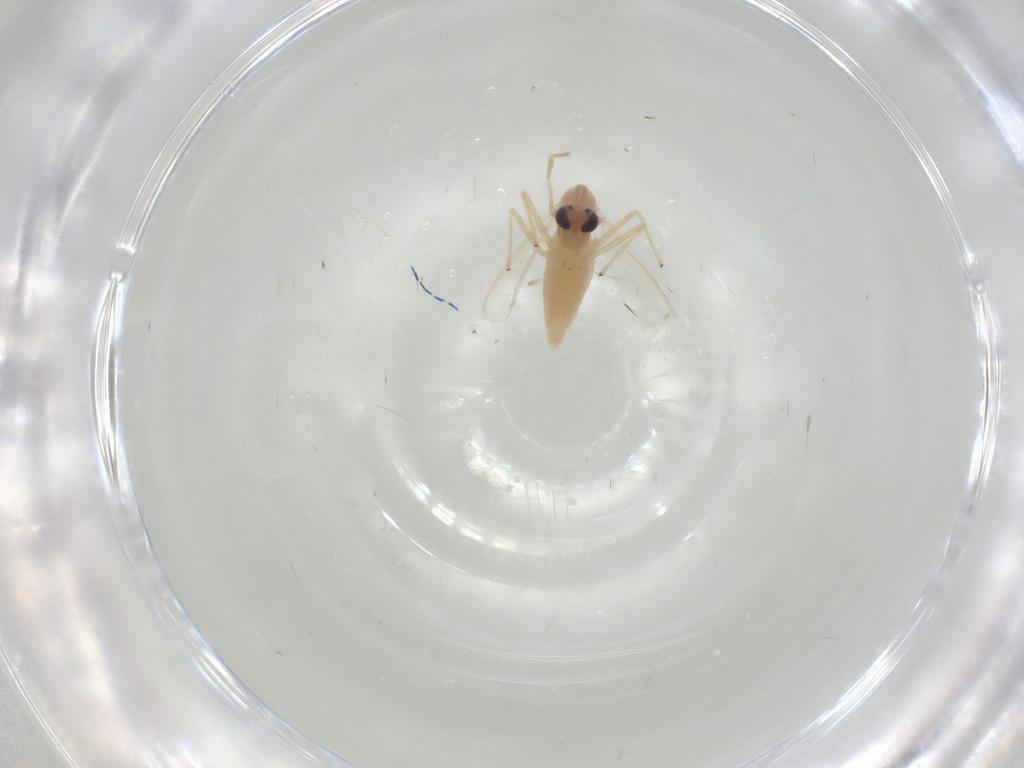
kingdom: Animalia
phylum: Arthropoda
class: Insecta
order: Diptera
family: Chironomidae
